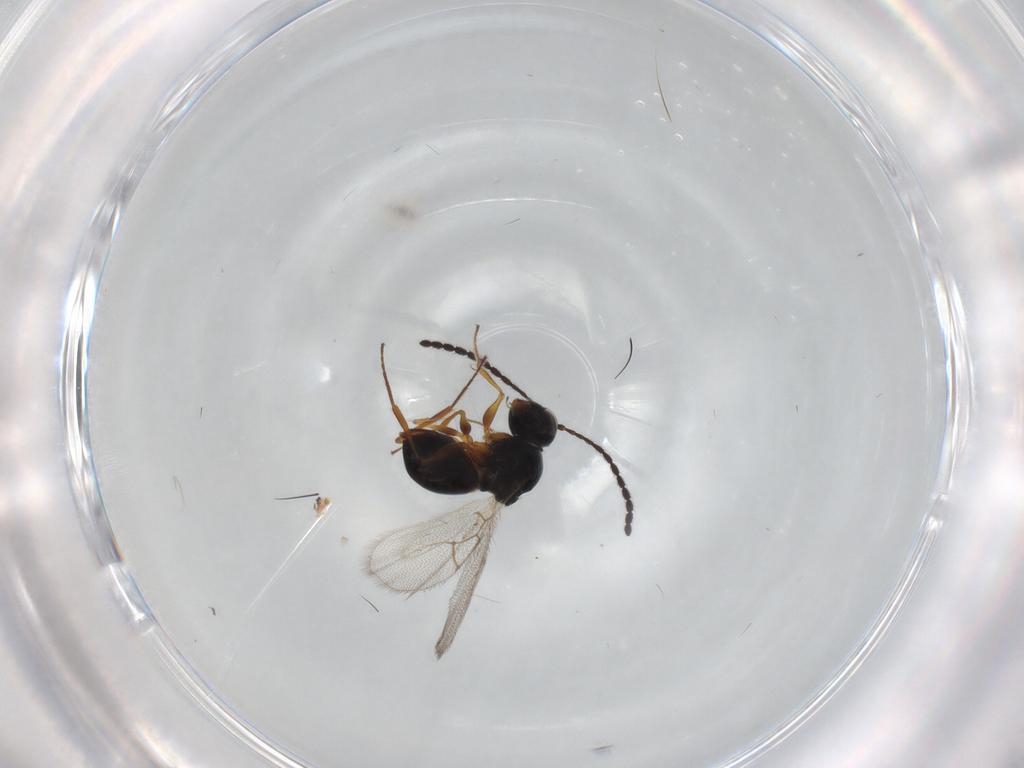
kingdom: Animalia
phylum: Arthropoda
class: Insecta
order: Hymenoptera
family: Figitidae
